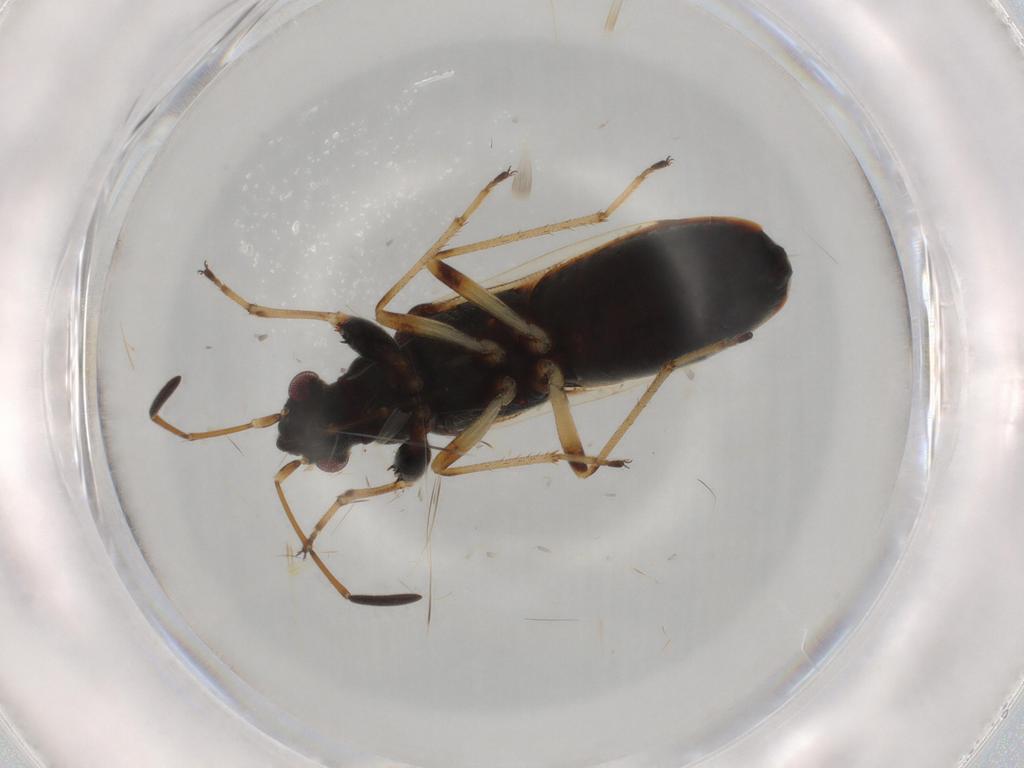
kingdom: Animalia
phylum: Arthropoda
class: Insecta
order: Hemiptera
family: Rhyparochromidae
